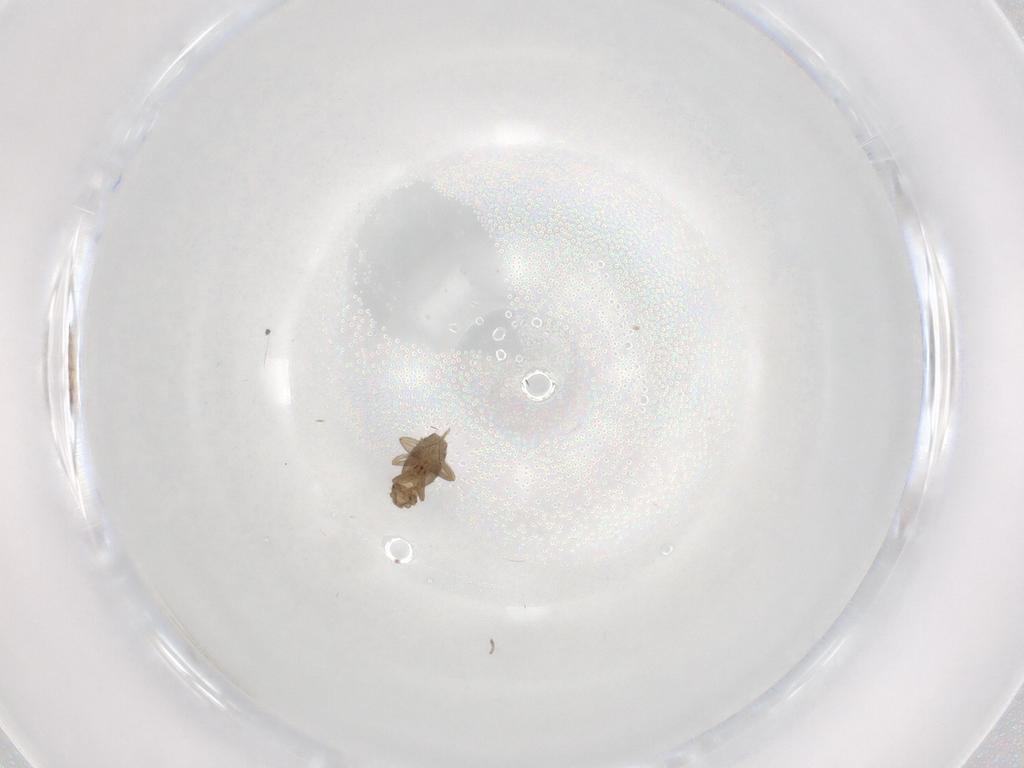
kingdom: Animalia
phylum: Arthropoda
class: Insecta
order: Diptera
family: Phoridae
